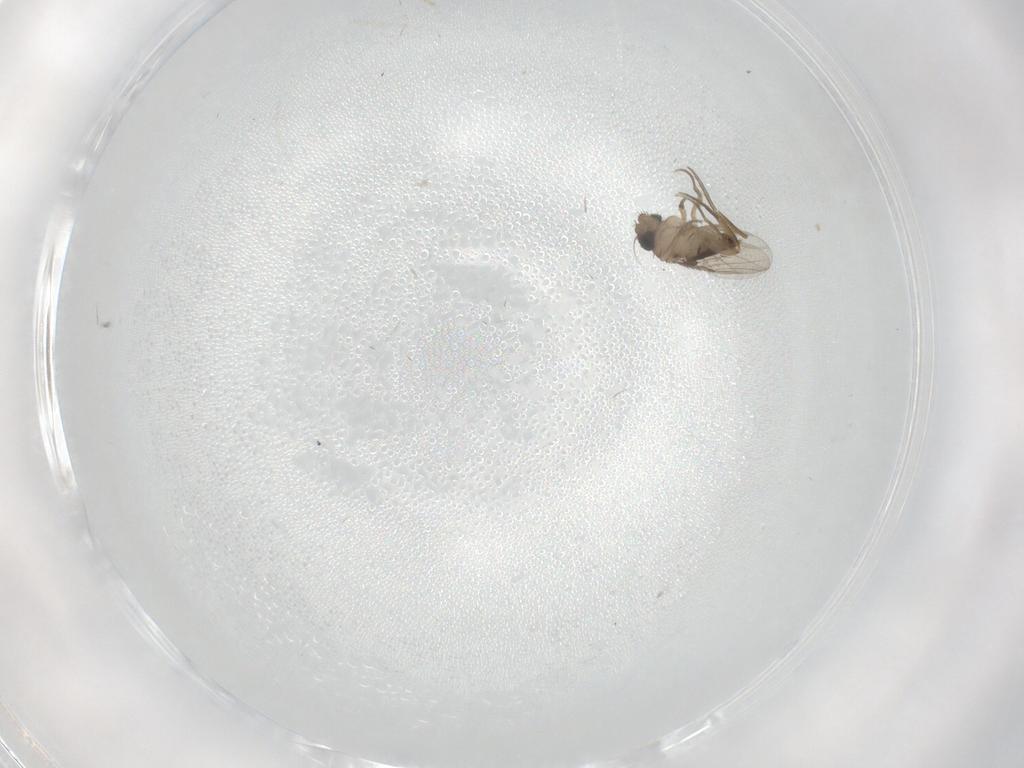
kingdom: Animalia
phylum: Arthropoda
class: Insecta
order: Diptera
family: Phoridae
